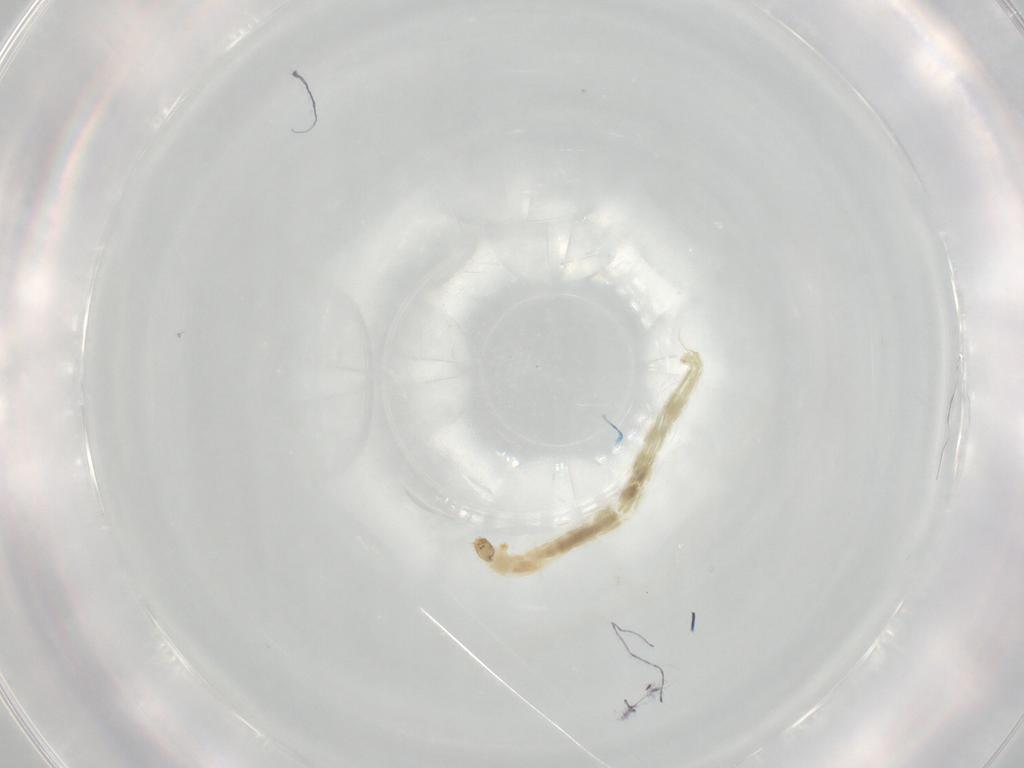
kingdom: Animalia
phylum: Arthropoda
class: Insecta
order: Diptera
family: Chironomidae
